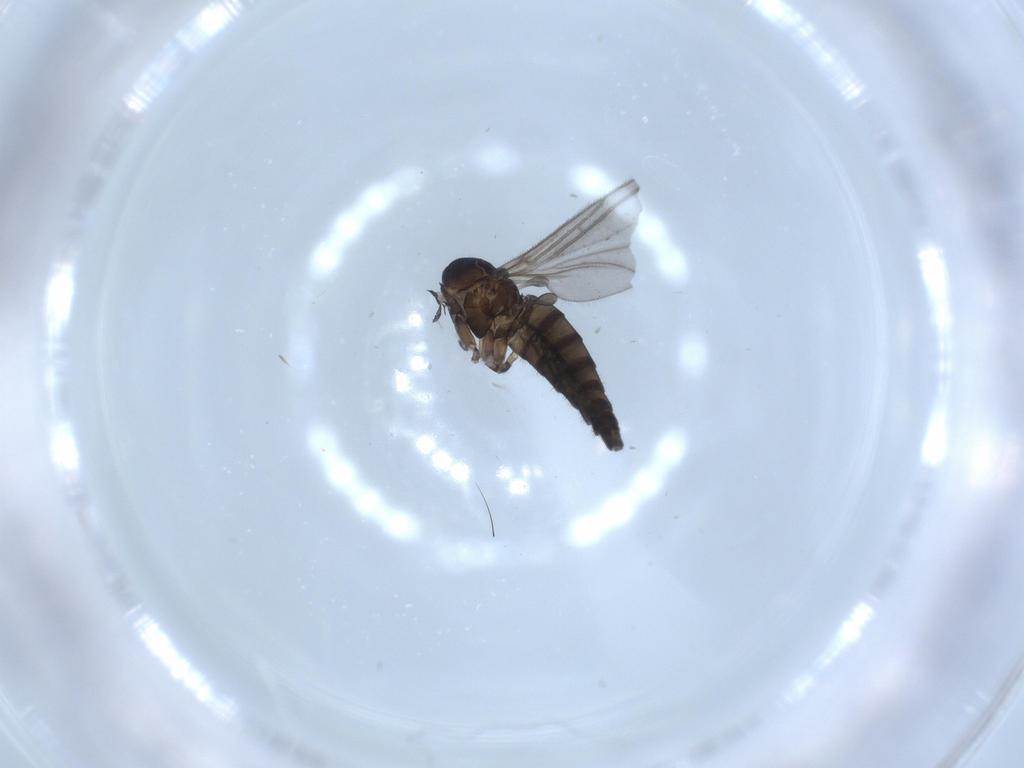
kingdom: Animalia
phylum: Arthropoda
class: Insecta
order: Diptera
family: Sciaridae
